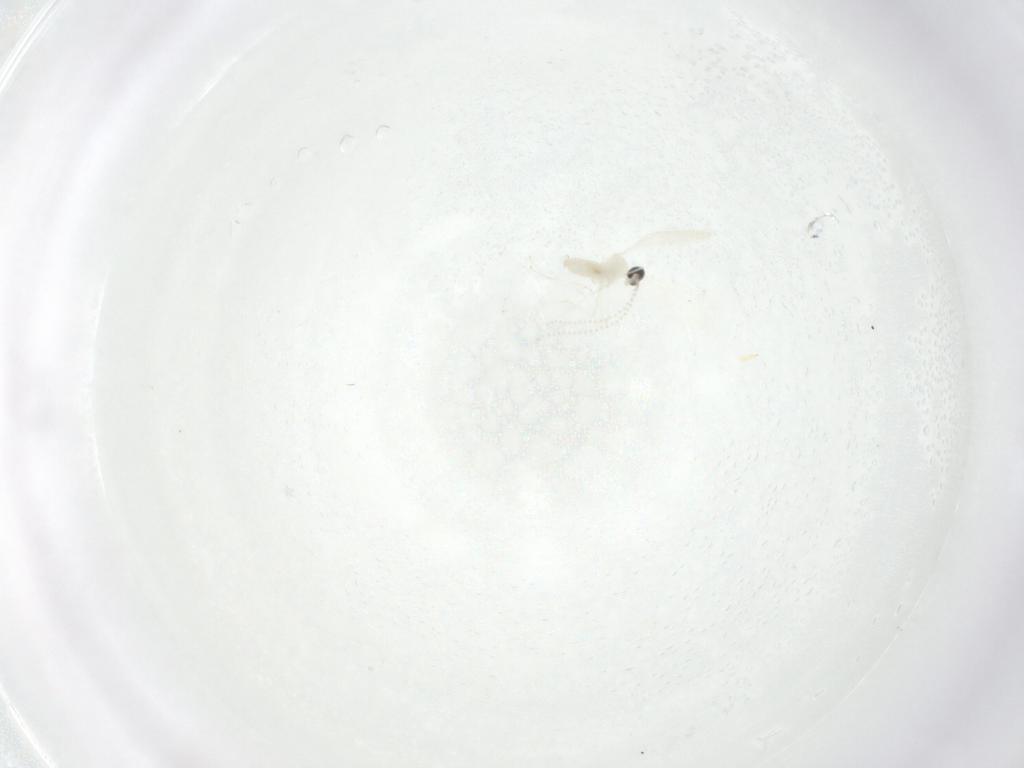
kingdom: Animalia
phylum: Arthropoda
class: Insecta
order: Diptera
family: Cecidomyiidae
